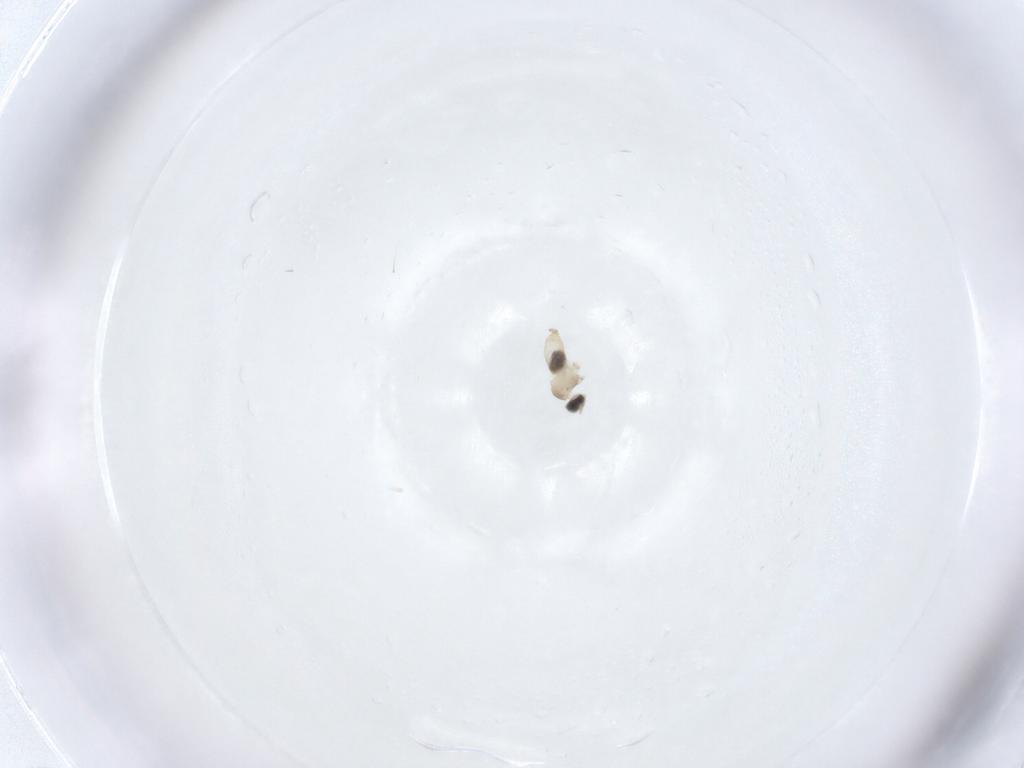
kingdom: Animalia
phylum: Arthropoda
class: Insecta
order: Diptera
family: Cecidomyiidae
